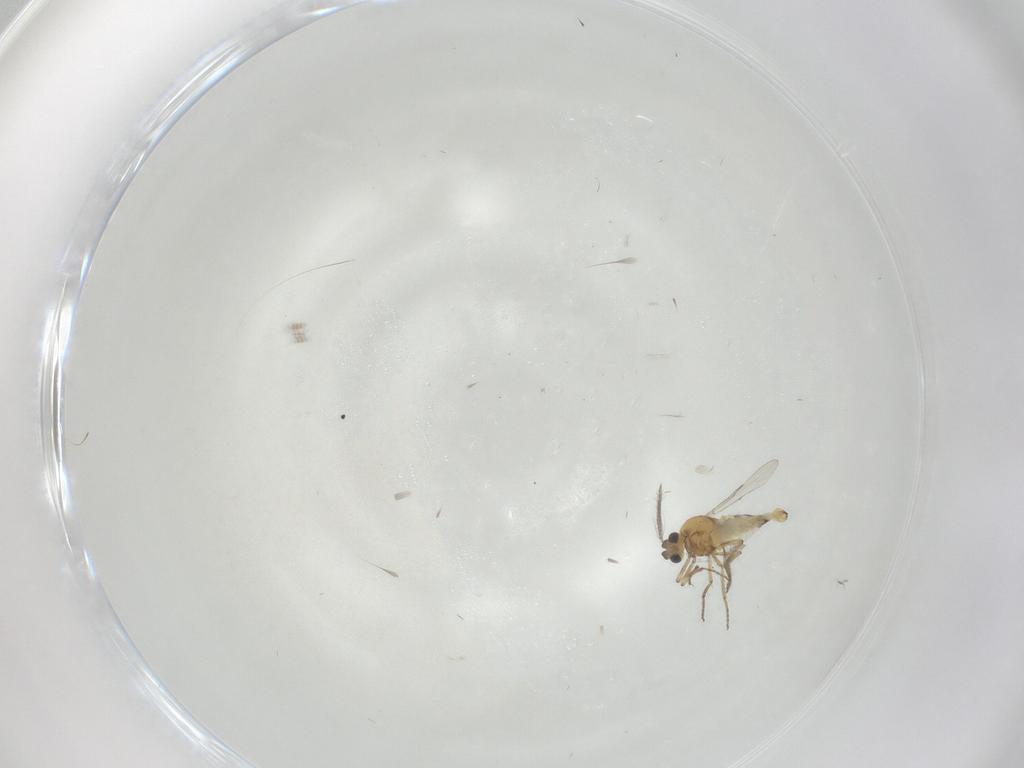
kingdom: Animalia
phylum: Arthropoda
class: Insecta
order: Diptera
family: Ceratopogonidae
